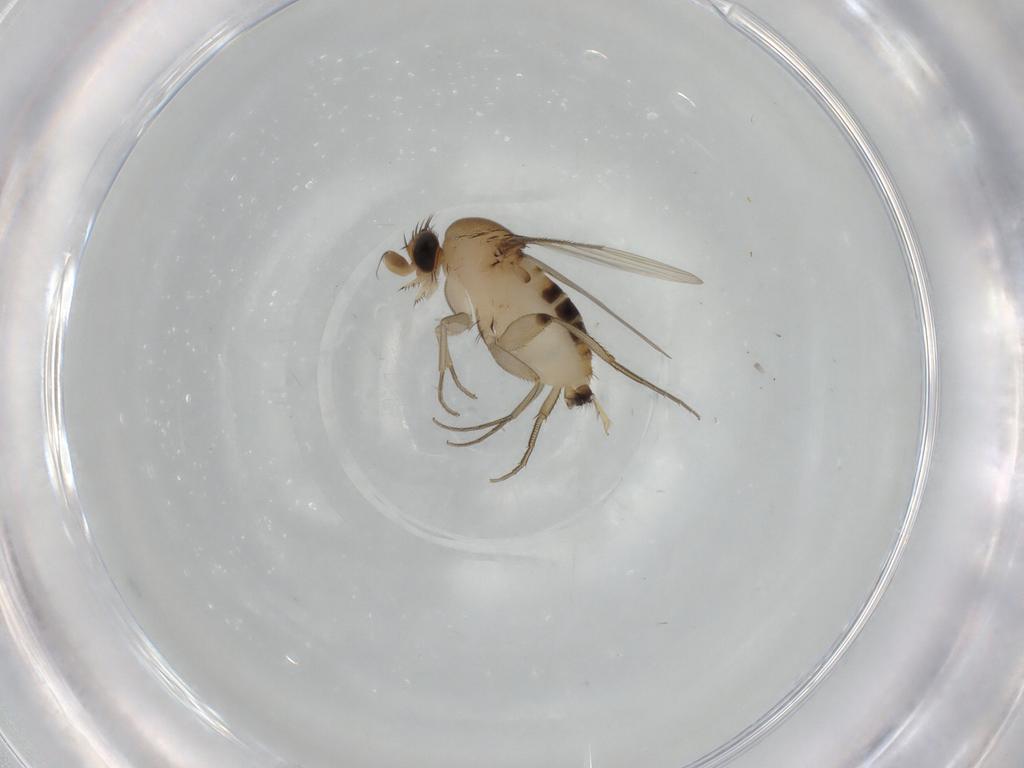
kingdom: Animalia
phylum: Arthropoda
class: Insecta
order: Diptera
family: Phoridae
